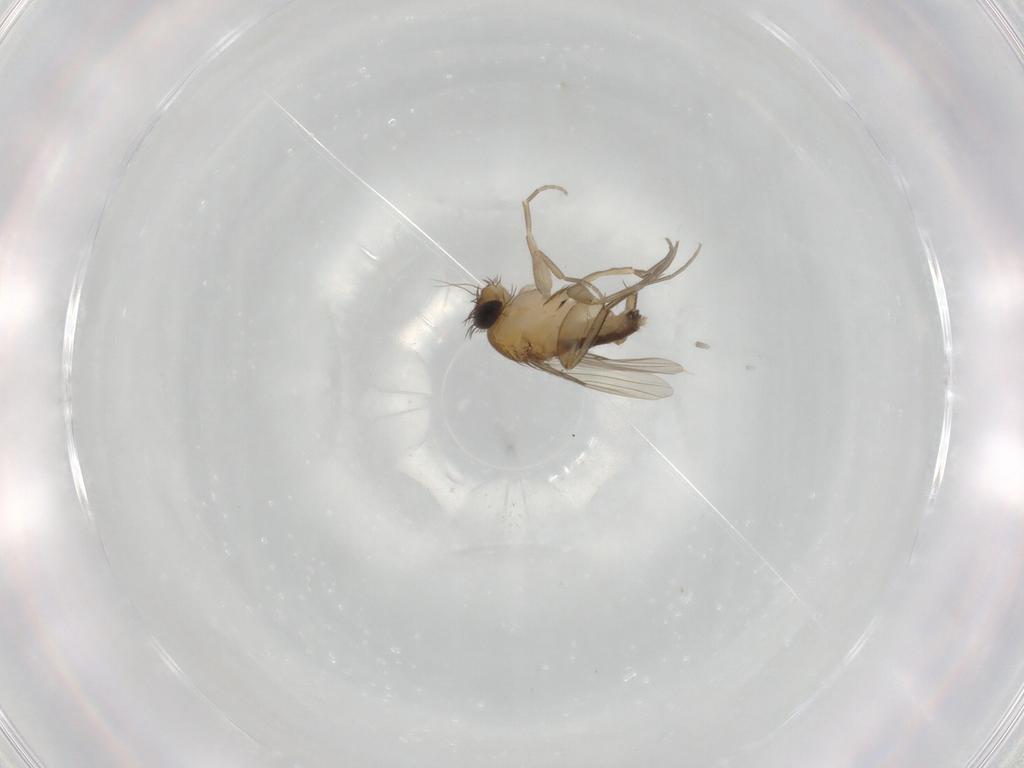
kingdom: Animalia
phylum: Arthropoda
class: Insecta
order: Diptera
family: Phoridae
